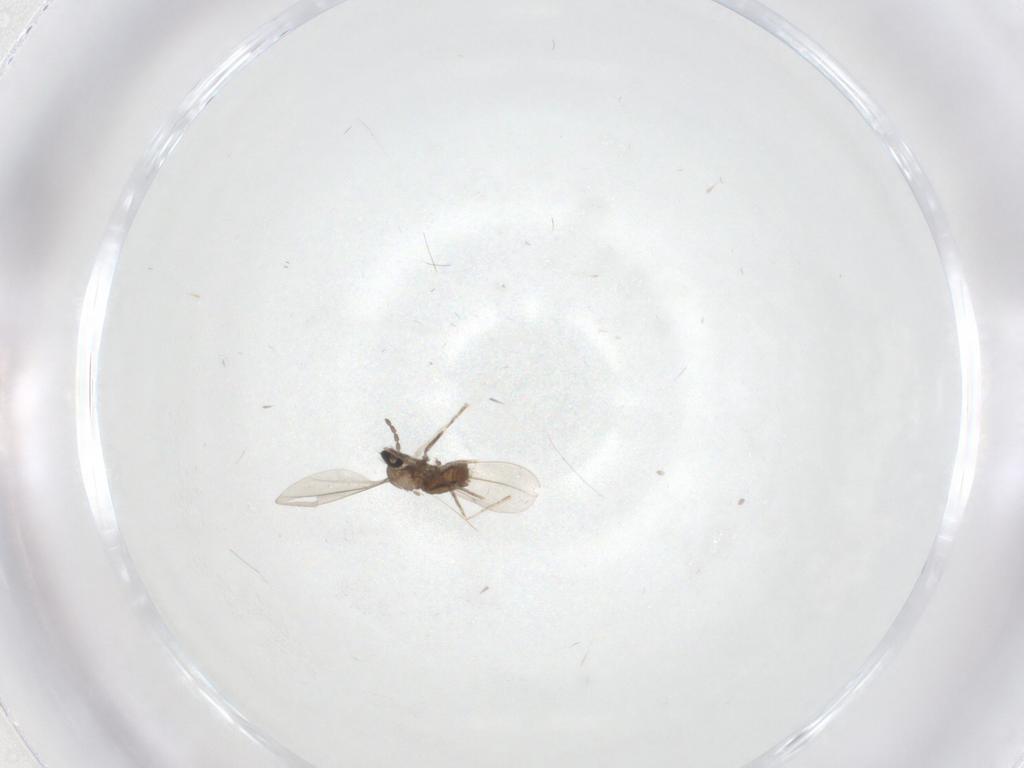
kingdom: Animalia
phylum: Arthropoda
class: Insecta
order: Diptera
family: Cecidomyiidae
